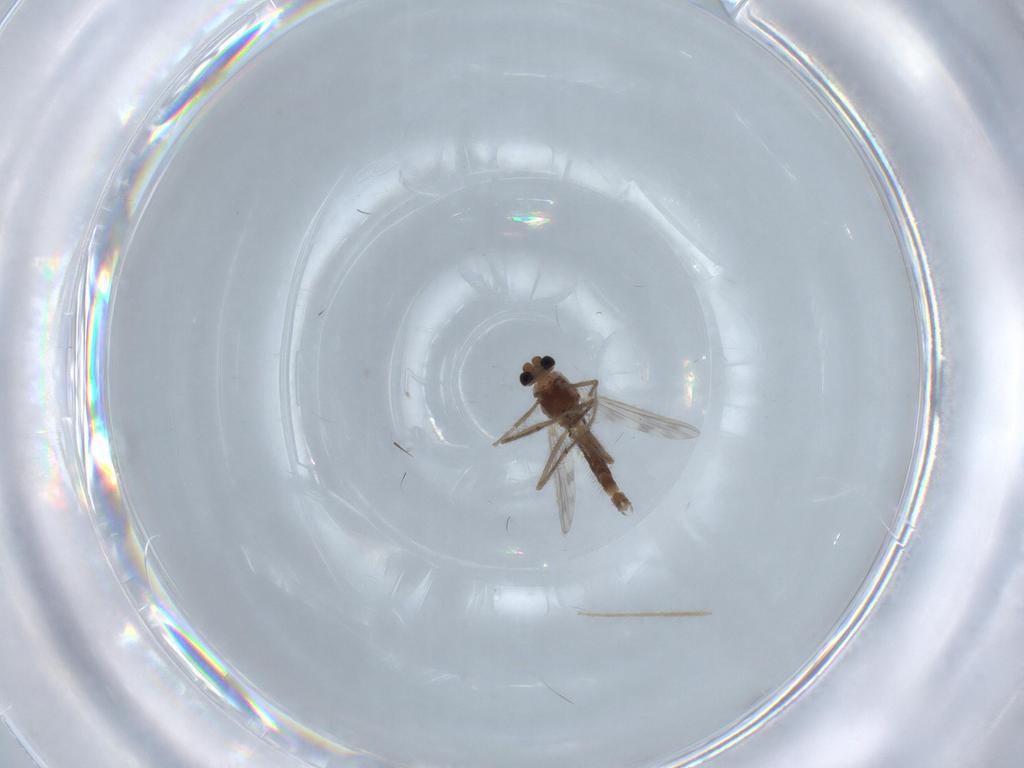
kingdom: Animalia
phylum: Arthropoda
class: Insecta
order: Diptera
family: Chironomidae
